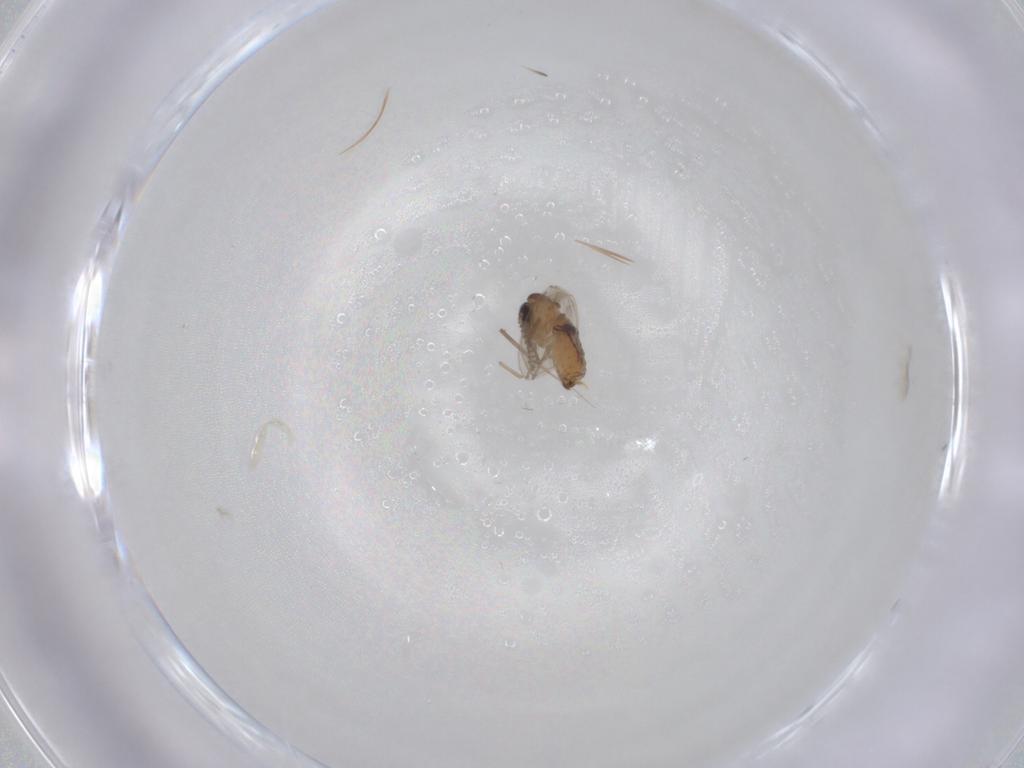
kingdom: Animalia
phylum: Arthropoda
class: Insecta
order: Diptera
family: Psychodidae
